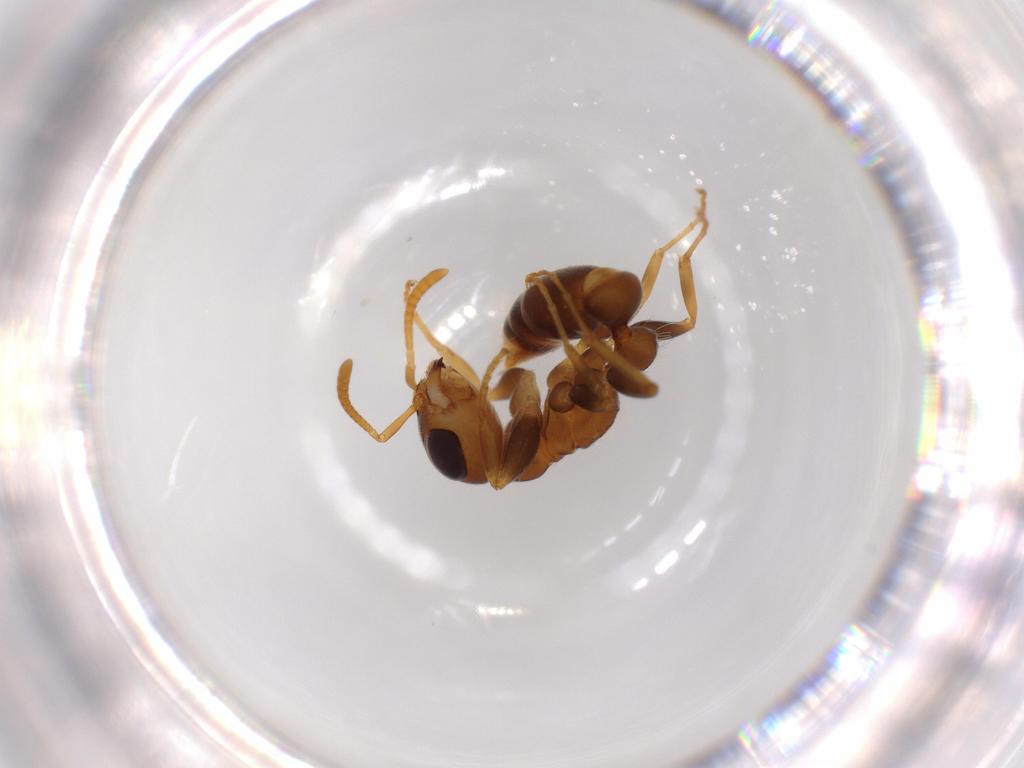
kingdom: Animalia
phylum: Arthropoda
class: Insecta
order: Hymenoptera
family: Formicidae
